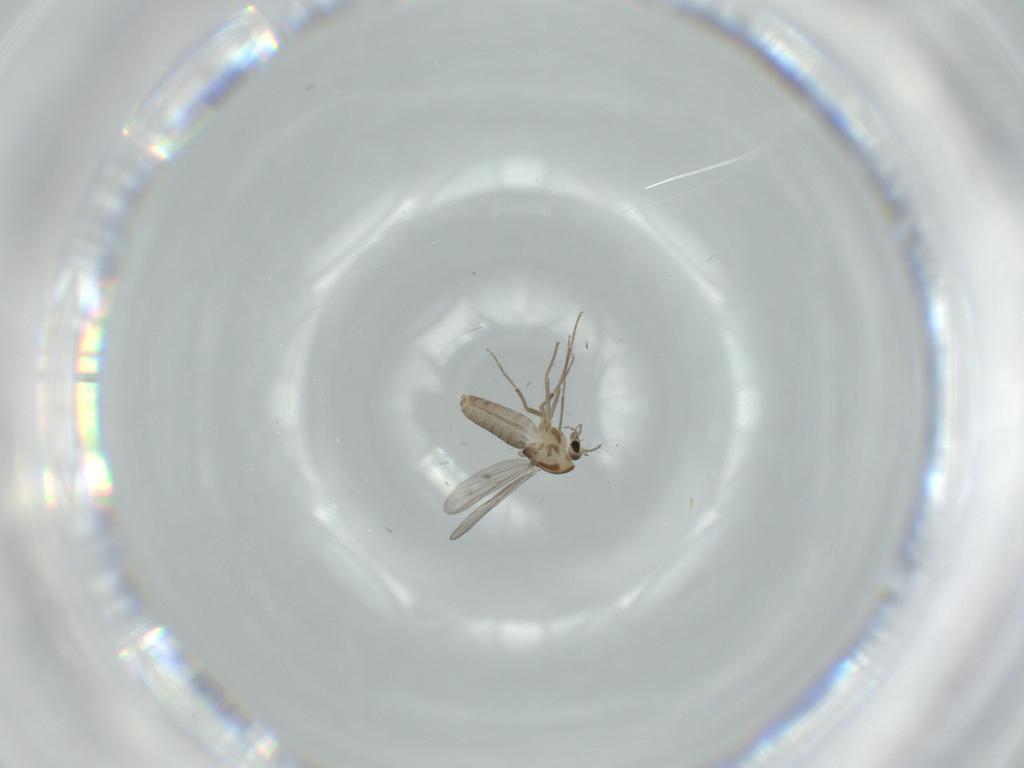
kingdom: Animalia
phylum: Arthropoda
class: Insecta
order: Diptera
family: Chironomidae
